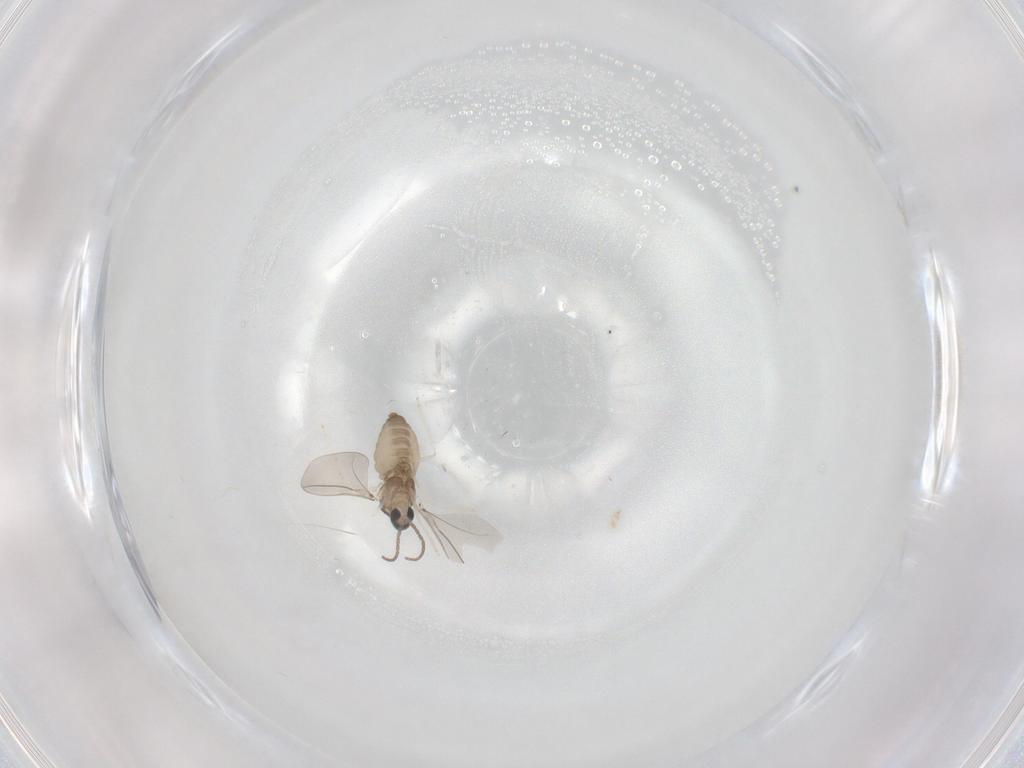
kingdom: Animalia
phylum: Arthropoda
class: Insecta
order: Diptera
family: Cecidomyiidae
